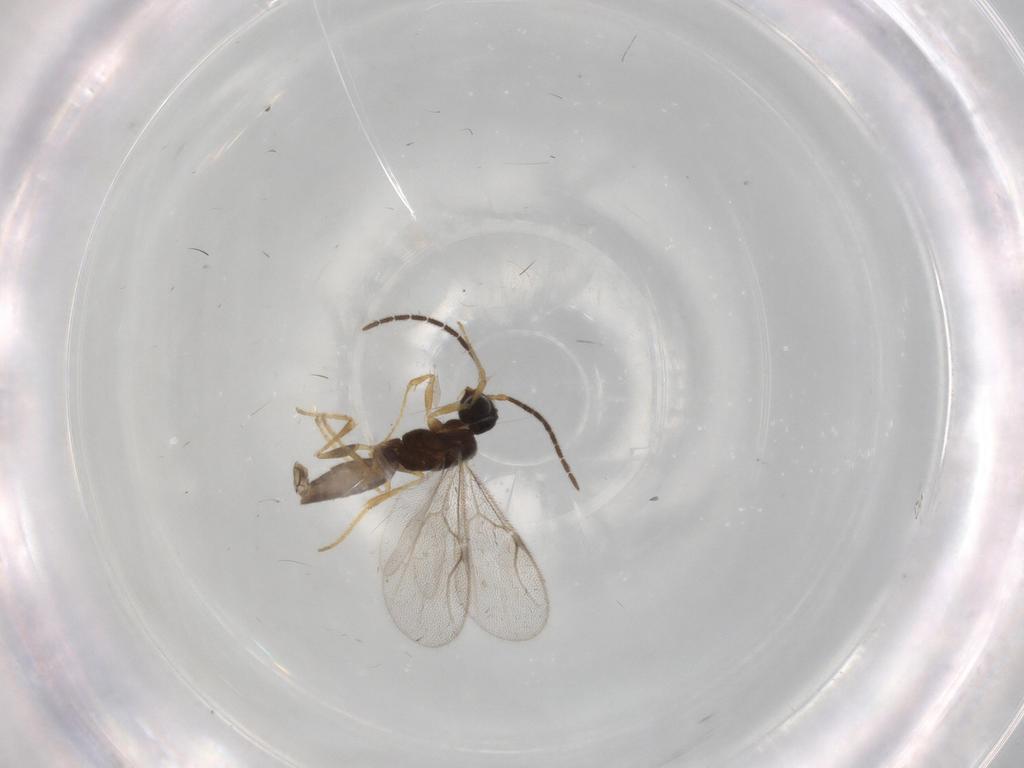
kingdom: Animalia
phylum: Arthropoda
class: Insecta
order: Hymenoptera
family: Dryinidae
